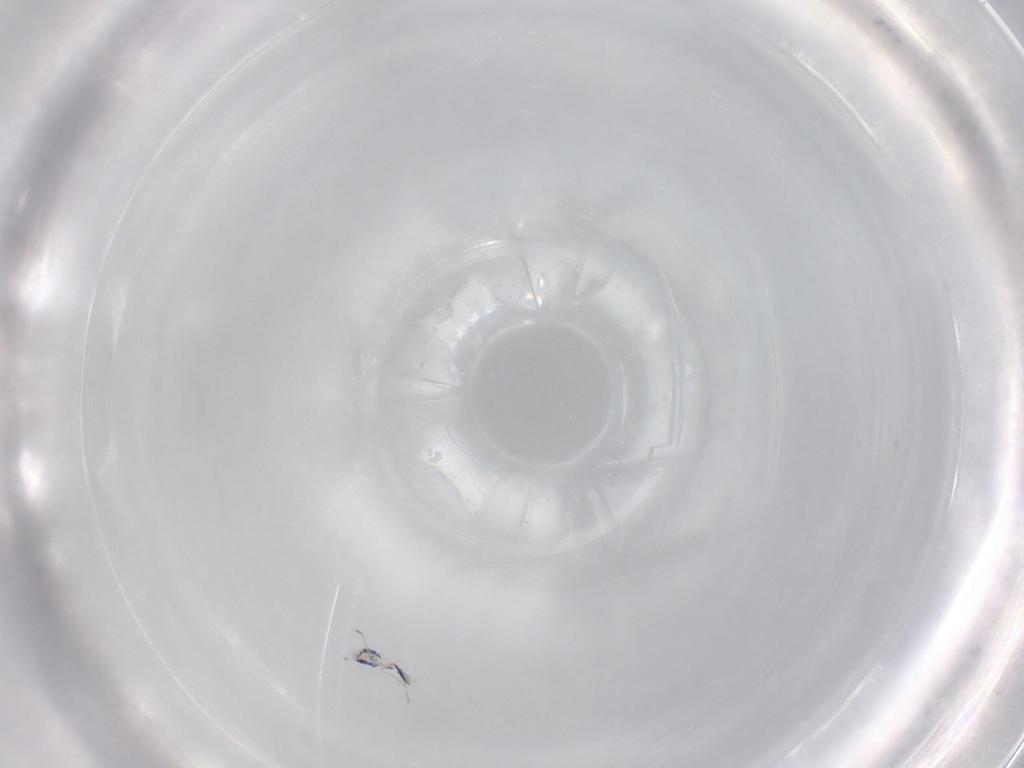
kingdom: Animalia
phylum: Arthropoda
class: Collembola
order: Entomobryomorpha
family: Entomobryidae
